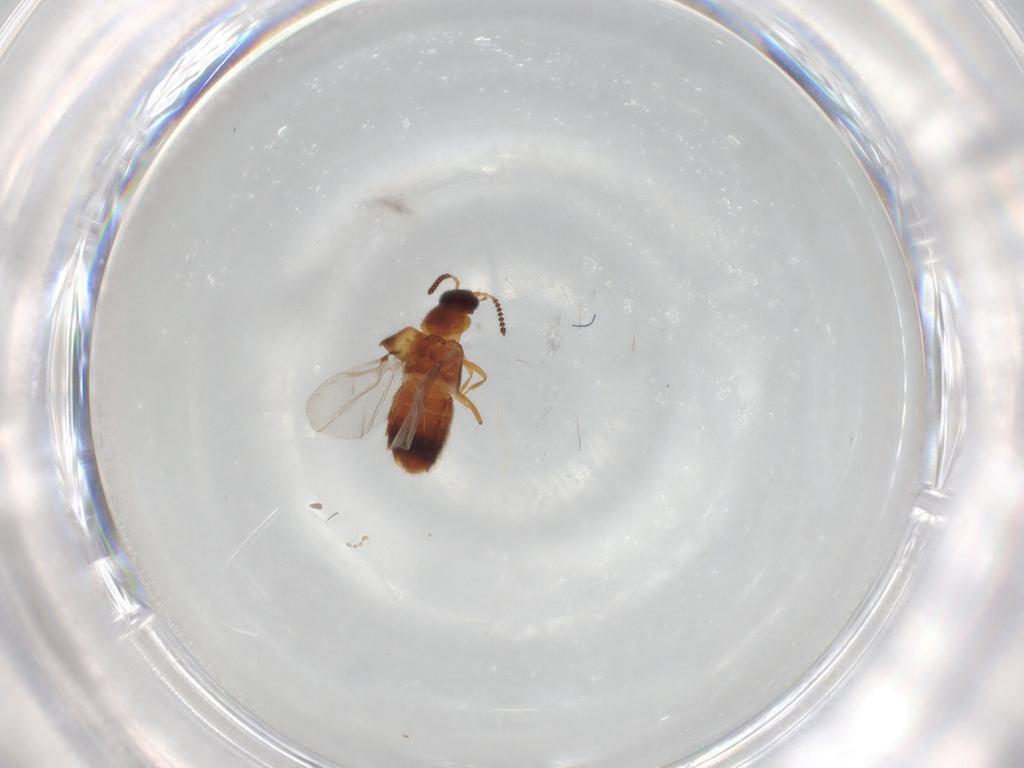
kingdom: Animalia
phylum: Arthropoda
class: Insecta
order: Coleoptera
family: Staphylinidae
